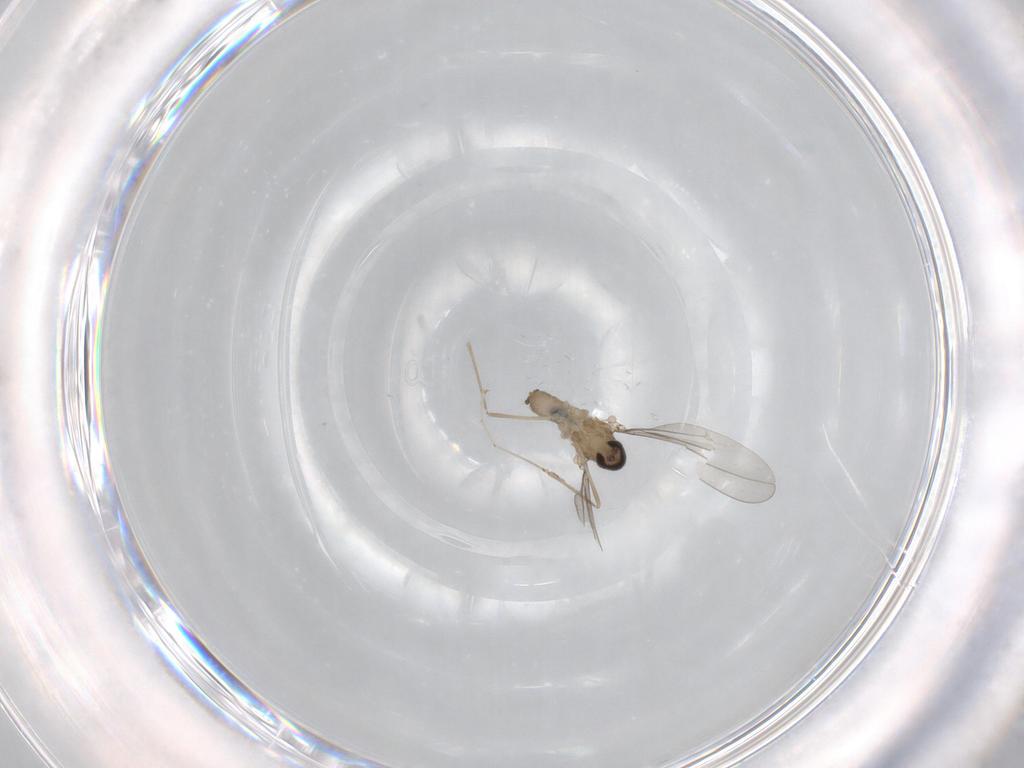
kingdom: Animalia
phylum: Arthropoda
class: Insecta
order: Diptera
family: Cecidomyiidae
